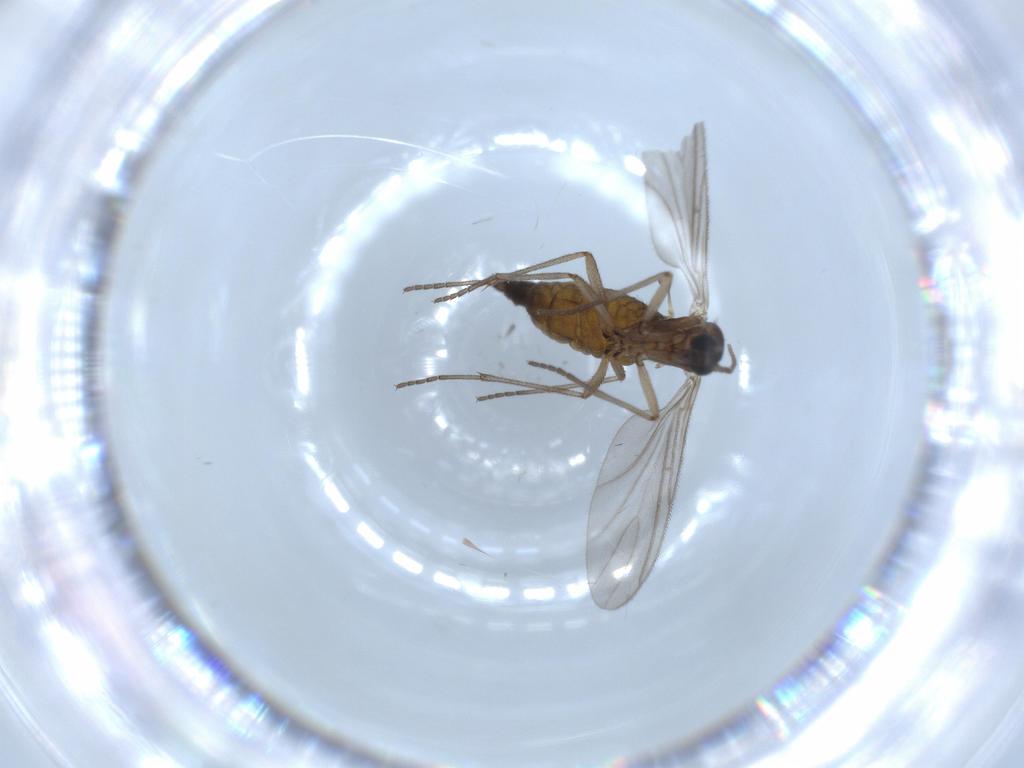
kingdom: Animalia
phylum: Arthropoda
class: Insecta
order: Diptera
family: Sciaridae
